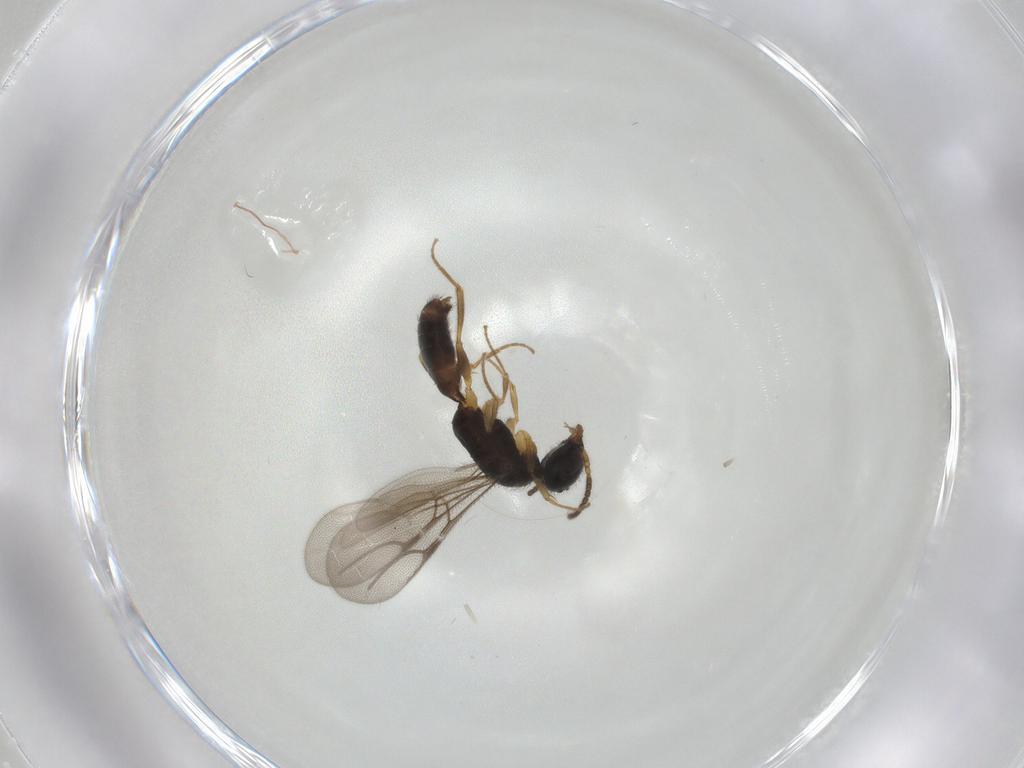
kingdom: Animalia
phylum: Arthropoda
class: Insecta
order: Hymenoptera
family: Bethylidae
